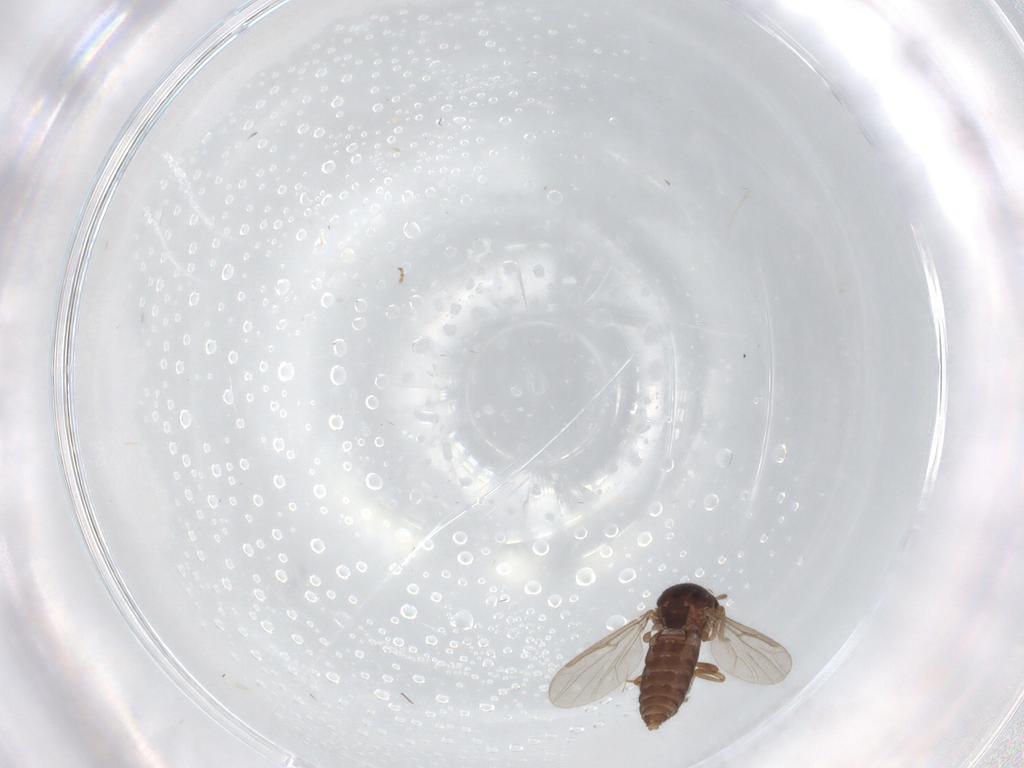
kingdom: Animalia
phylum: Arthropoda
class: Insecta
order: Diptera
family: Ceratopogonidae
